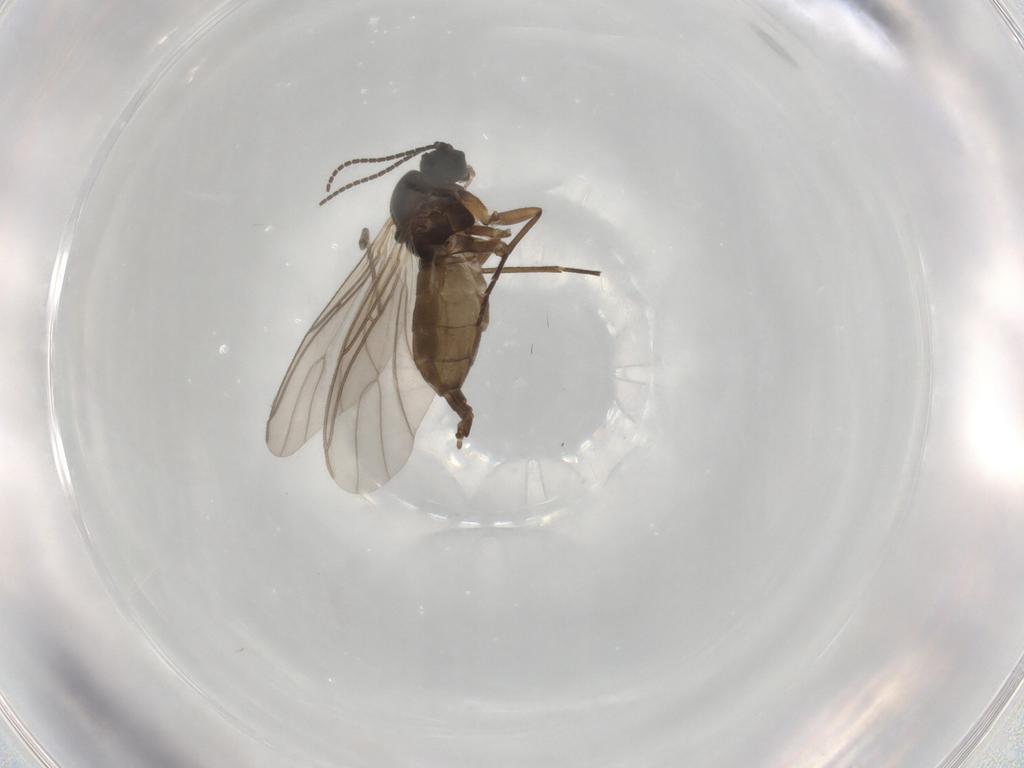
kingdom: Animalia
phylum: Arthropoda
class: Insecta
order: Diptera
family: Sciaridae
